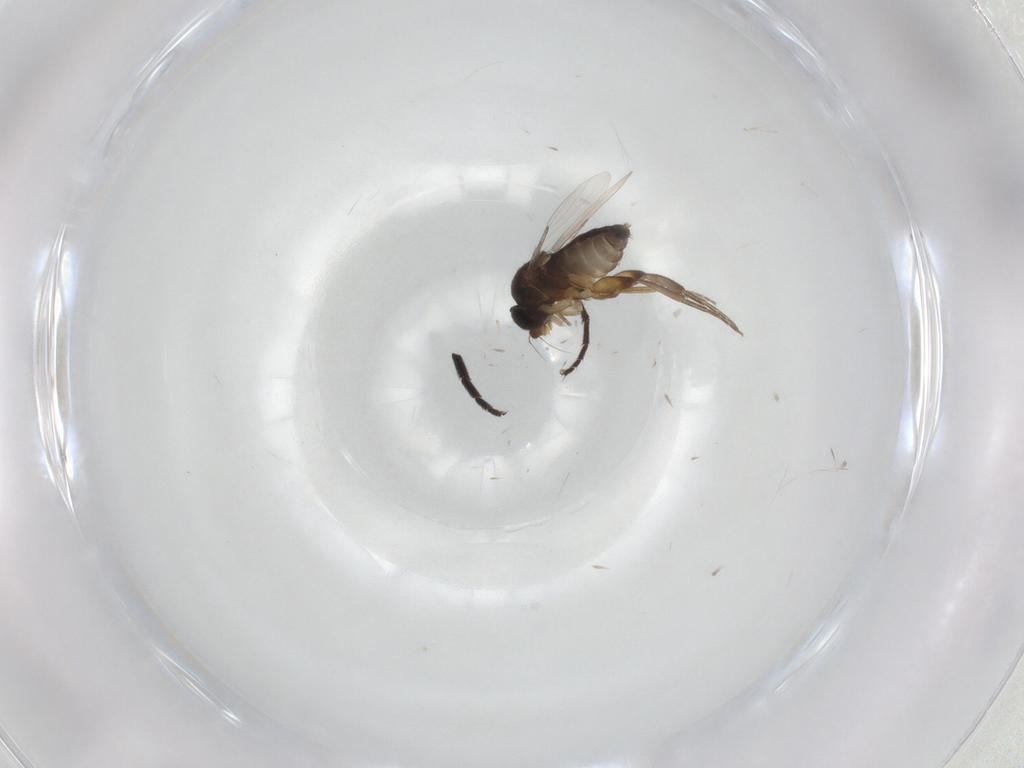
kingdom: Animalia
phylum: Arthropoda
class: Insecta
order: Diptera
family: Phoridae
